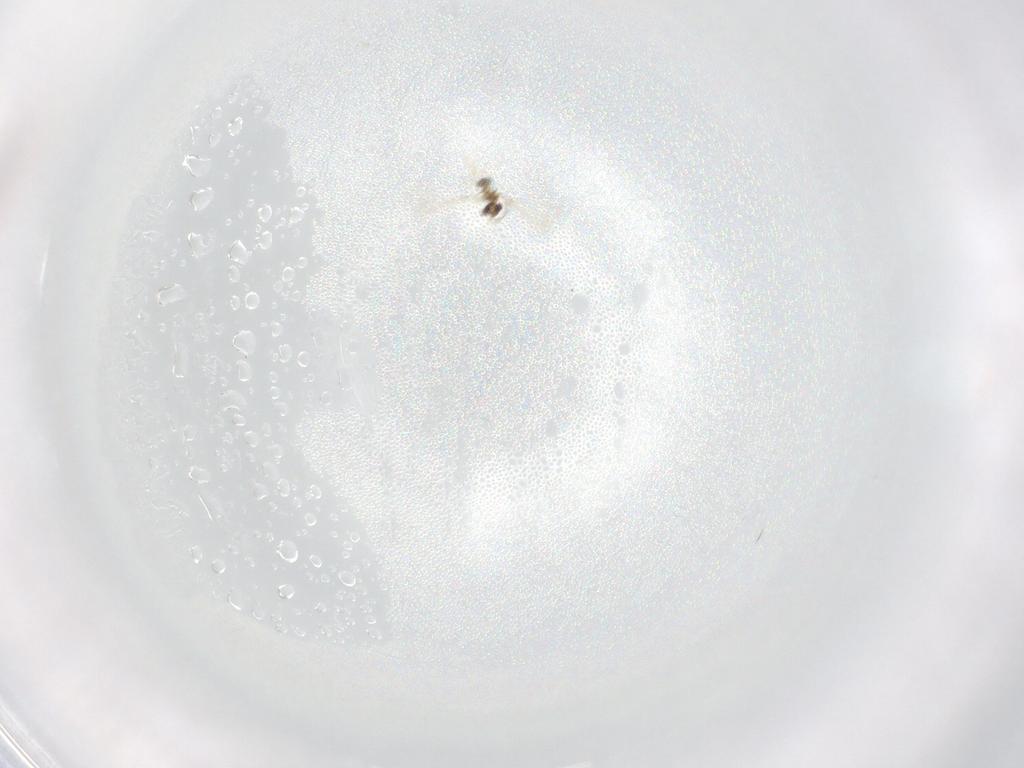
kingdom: Animalia
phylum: Arthropoda
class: Insecta
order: Hymenoptera
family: Mymaridae
